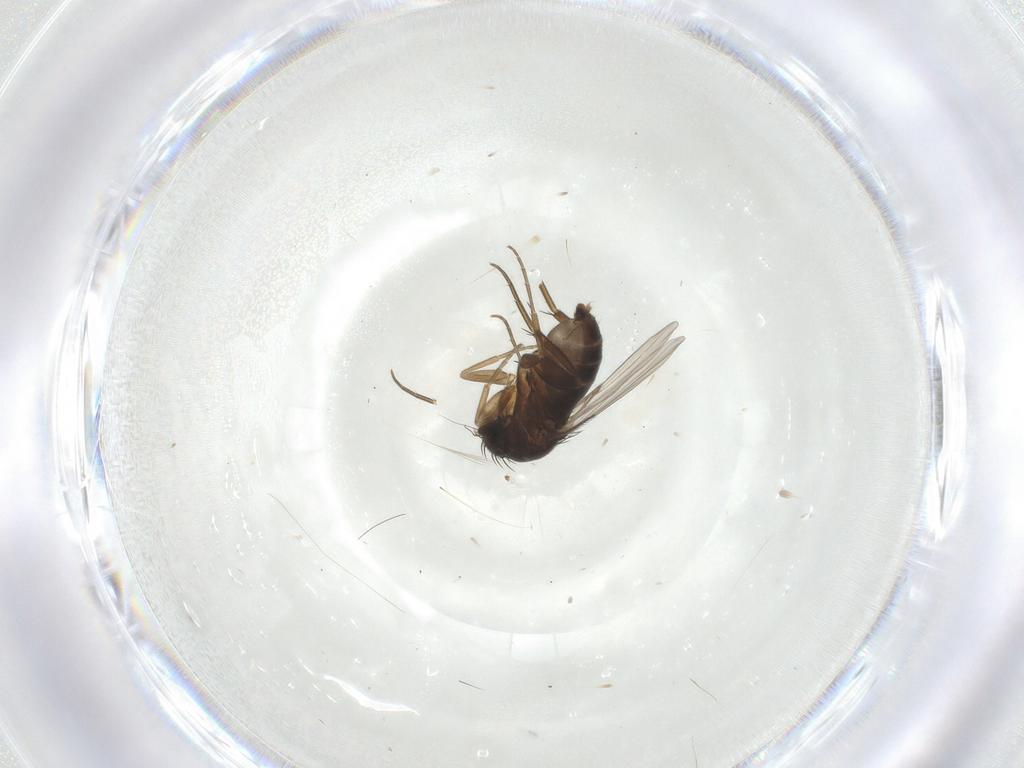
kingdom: Animalia
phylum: Arthropoda
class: Insecta
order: Diptera
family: Phoridae
